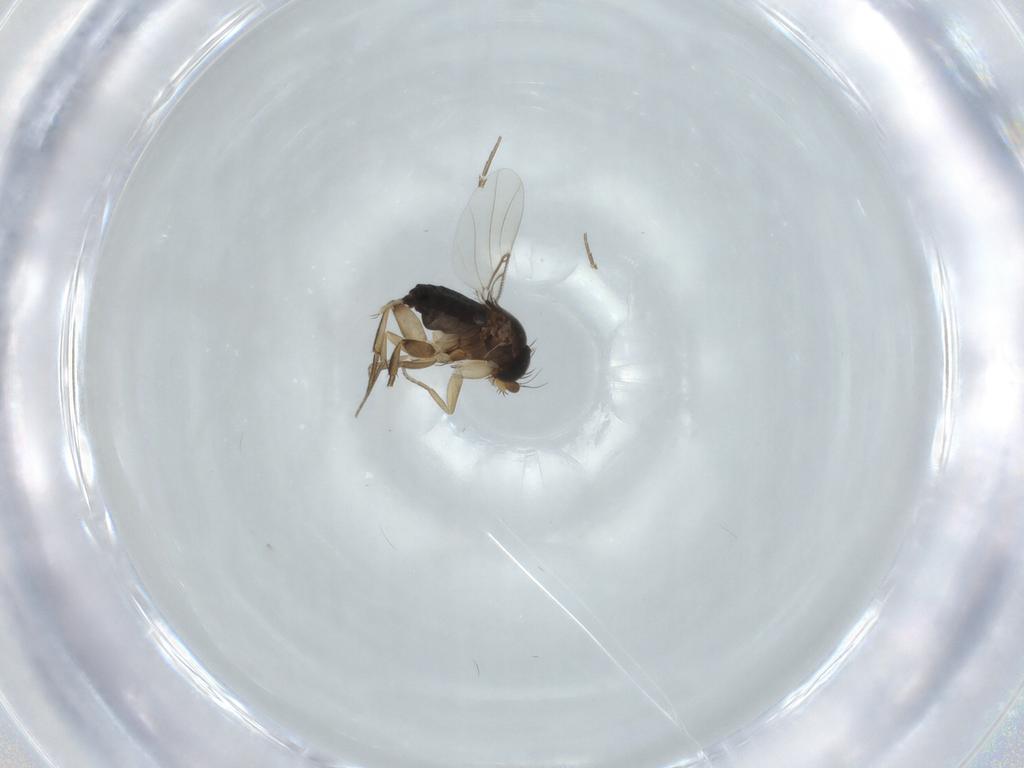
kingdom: Animalia
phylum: Arthropoda
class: Insecta
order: Diptera
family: Phoridae
